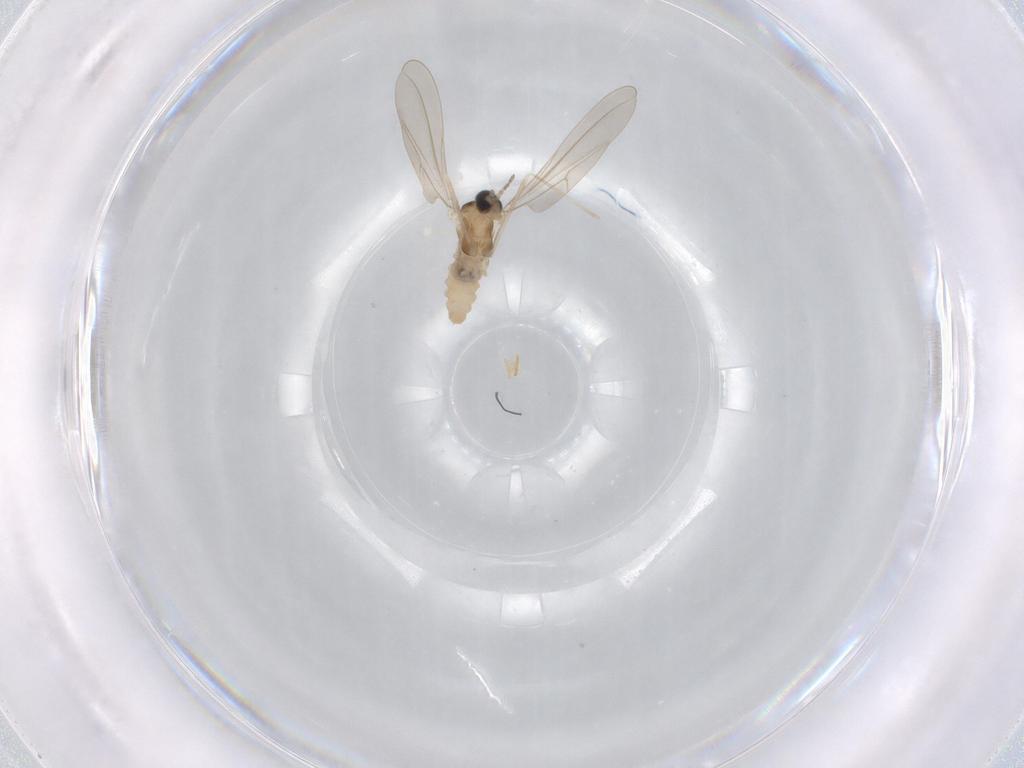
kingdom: Animalia
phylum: Arthropoda
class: Insecta
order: Diptera
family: Cecidomyiidae
